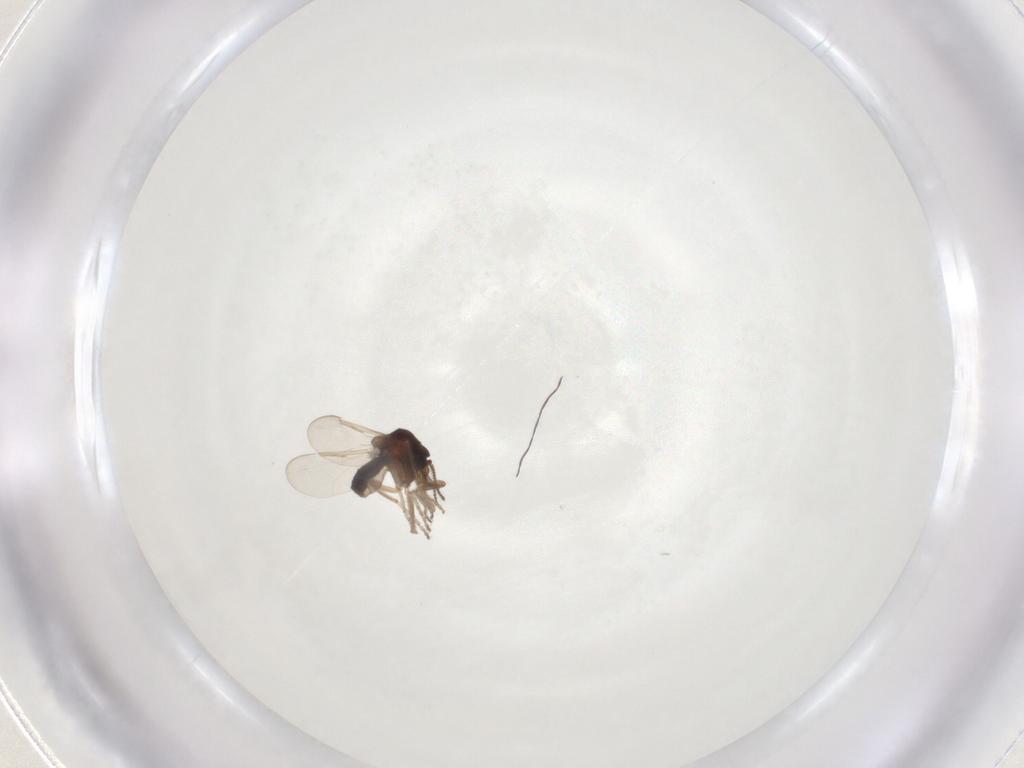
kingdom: Animalia
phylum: Arthropoda
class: Insecta
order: Diptera
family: Ceratopogonidae
